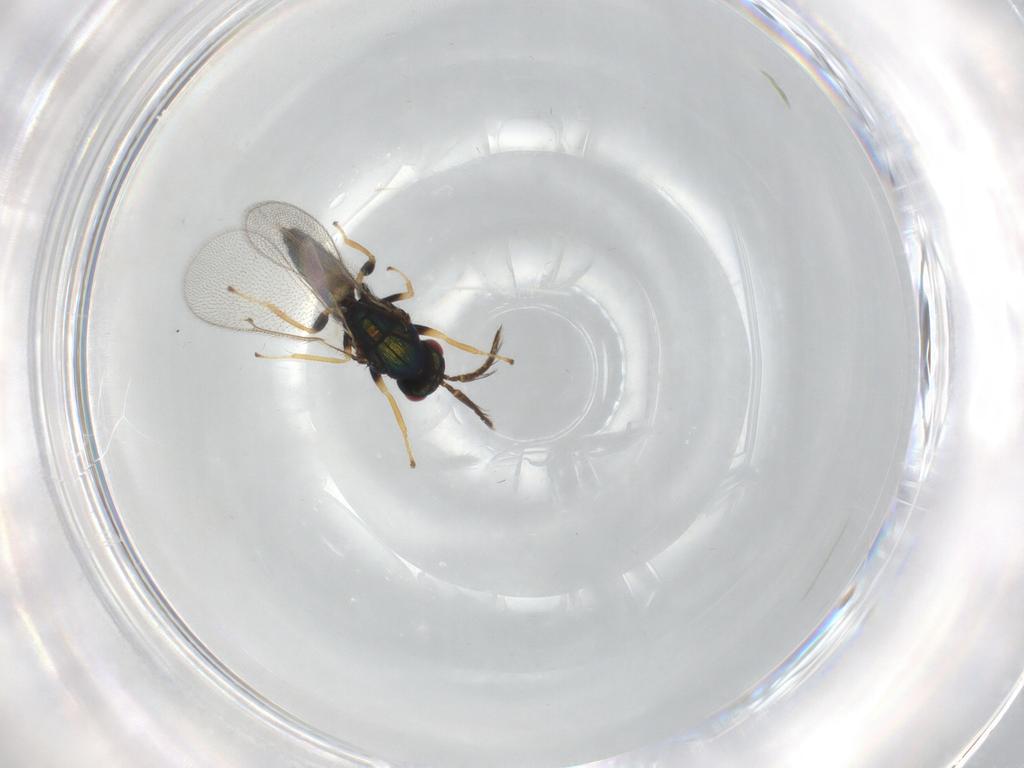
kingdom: Animalia
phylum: Arthropoda
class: Insecta
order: Hymenoptera
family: Eulophidae
